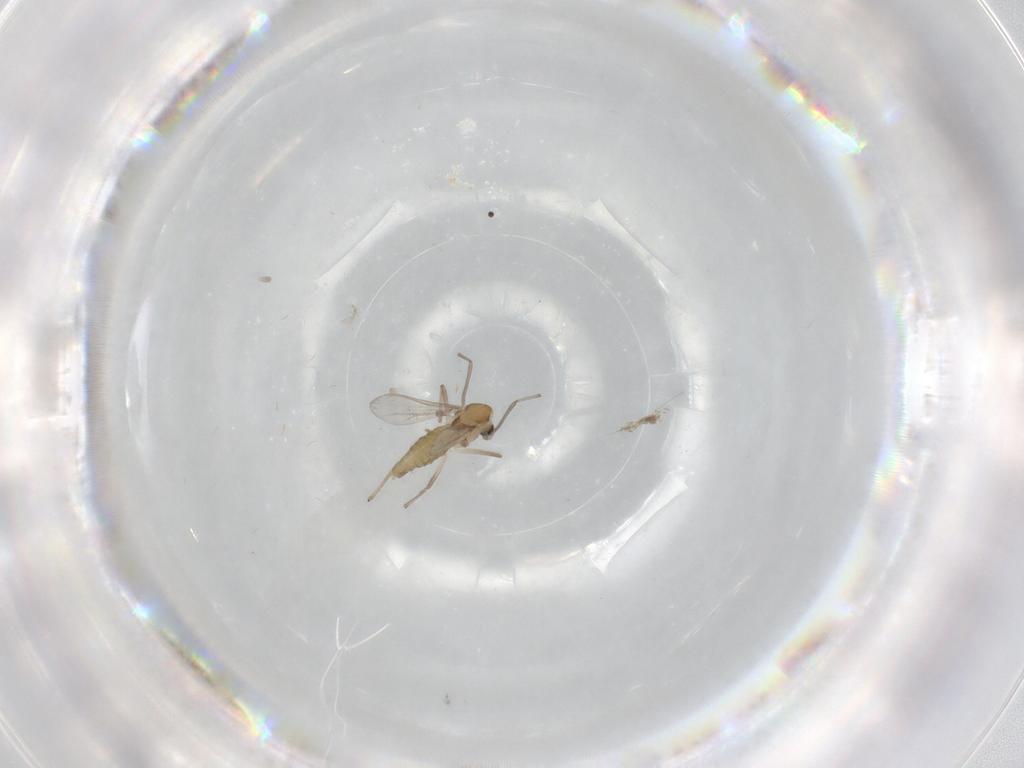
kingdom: Animalia
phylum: Arthropoda
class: Insecta
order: Diptera
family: Chironomidae
